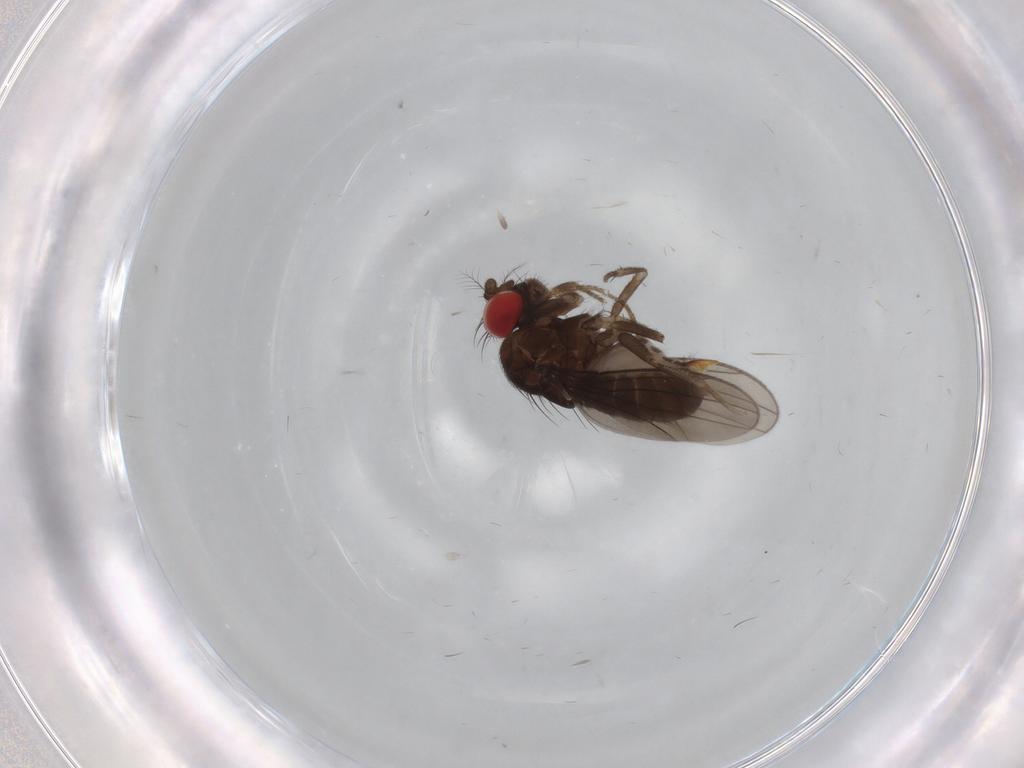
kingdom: Animalia
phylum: Arthropoda
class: Insecta
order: Diptera
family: Drosophilidae
